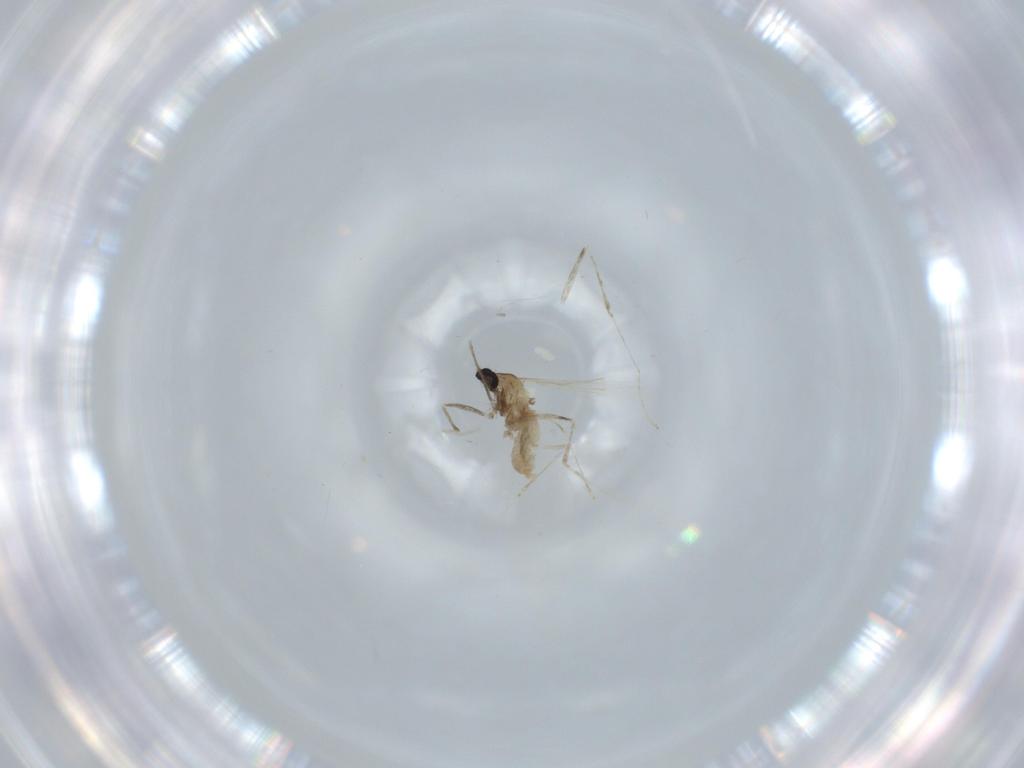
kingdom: Animalia
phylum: Arthropoda
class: Insecta
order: Diptera
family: Cecidomyiidae
